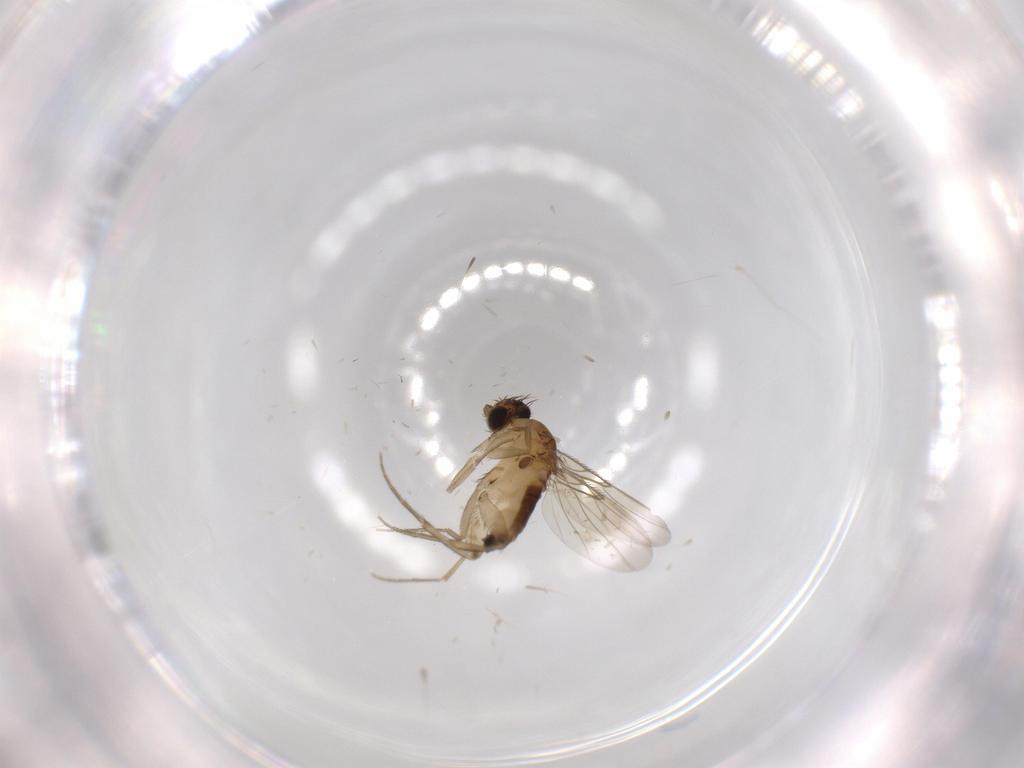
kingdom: Animalia
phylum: Arthropoda
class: Insecta
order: Diptera
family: Phoridae
